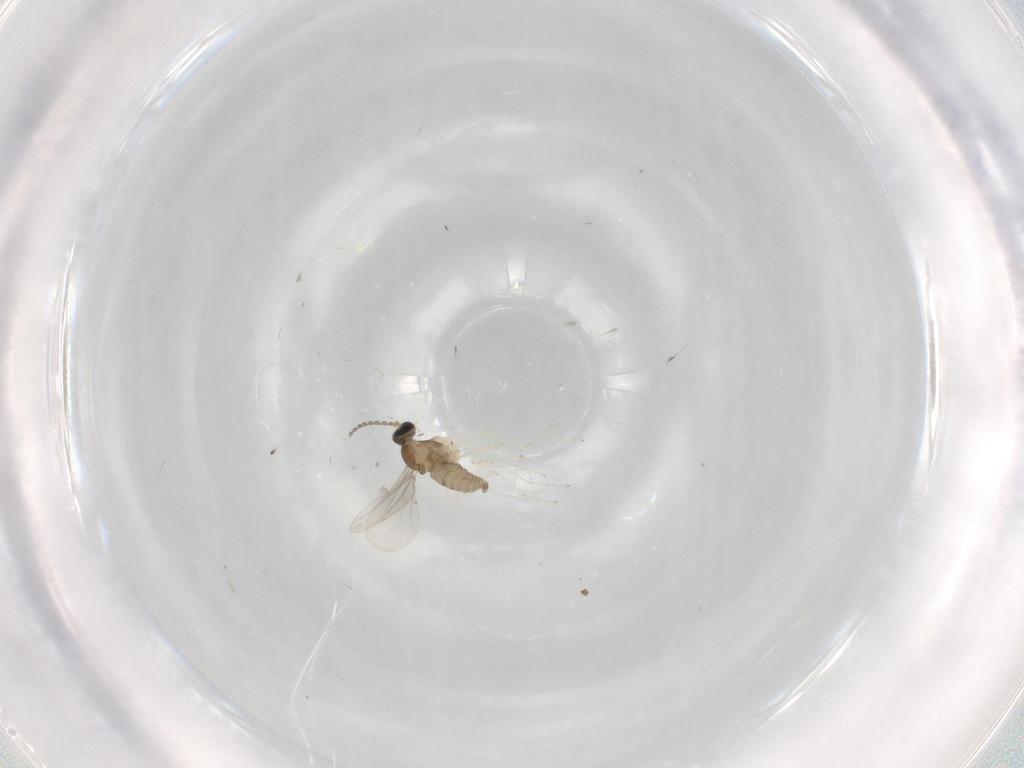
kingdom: Animalia
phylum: Arthropoda
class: Insecta
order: Diptera
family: Cecidomyiidae
